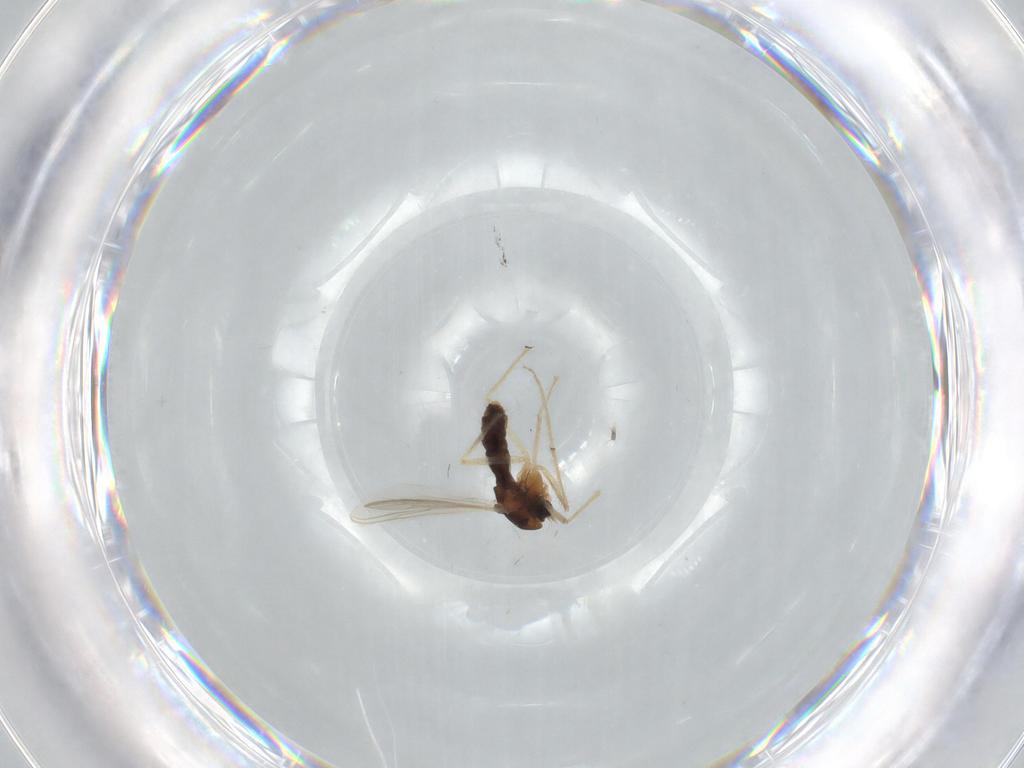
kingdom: Animalia
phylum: Arthropoda
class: Insecta
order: Diptera
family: Chironomidae
